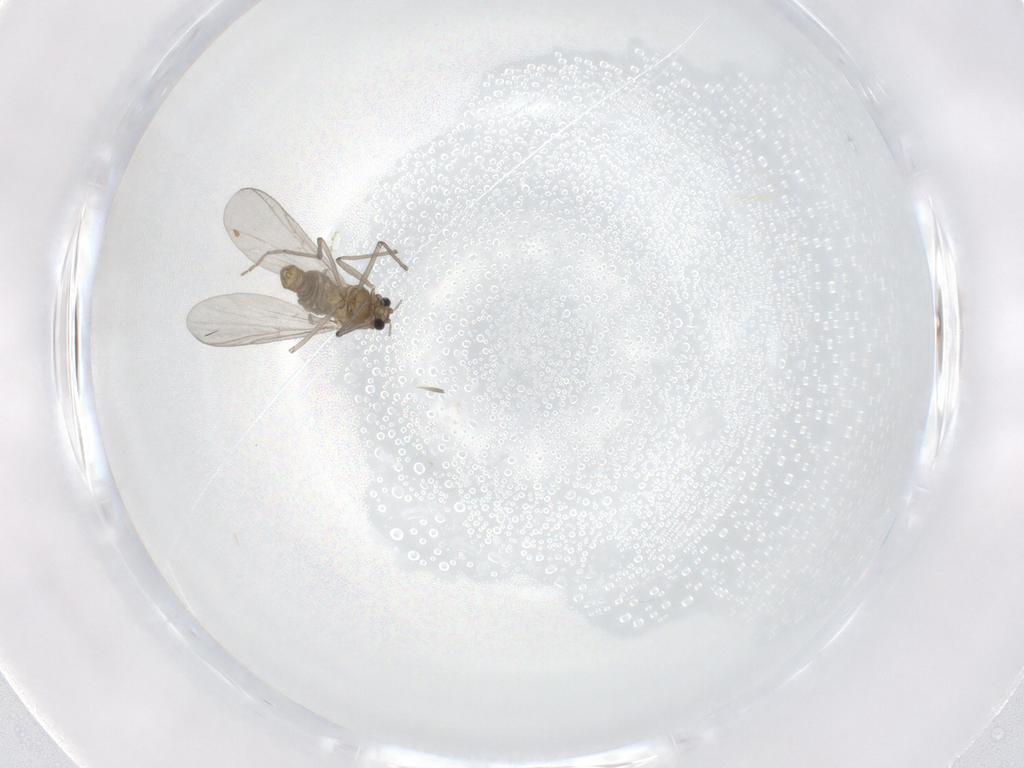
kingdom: Animalia
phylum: Arthropoda
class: Insecta
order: Diptera
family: Chironomidae
